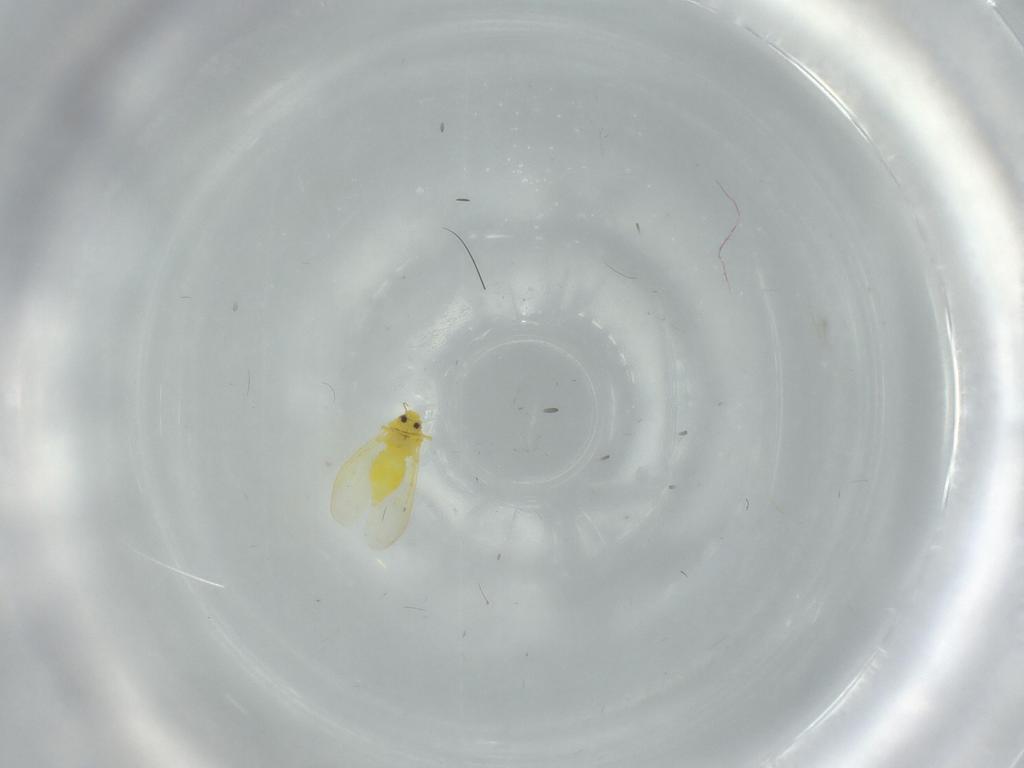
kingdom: Animalia
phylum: Arthropoda
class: Insecta
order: Hemiptera
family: Aleyrodidae
